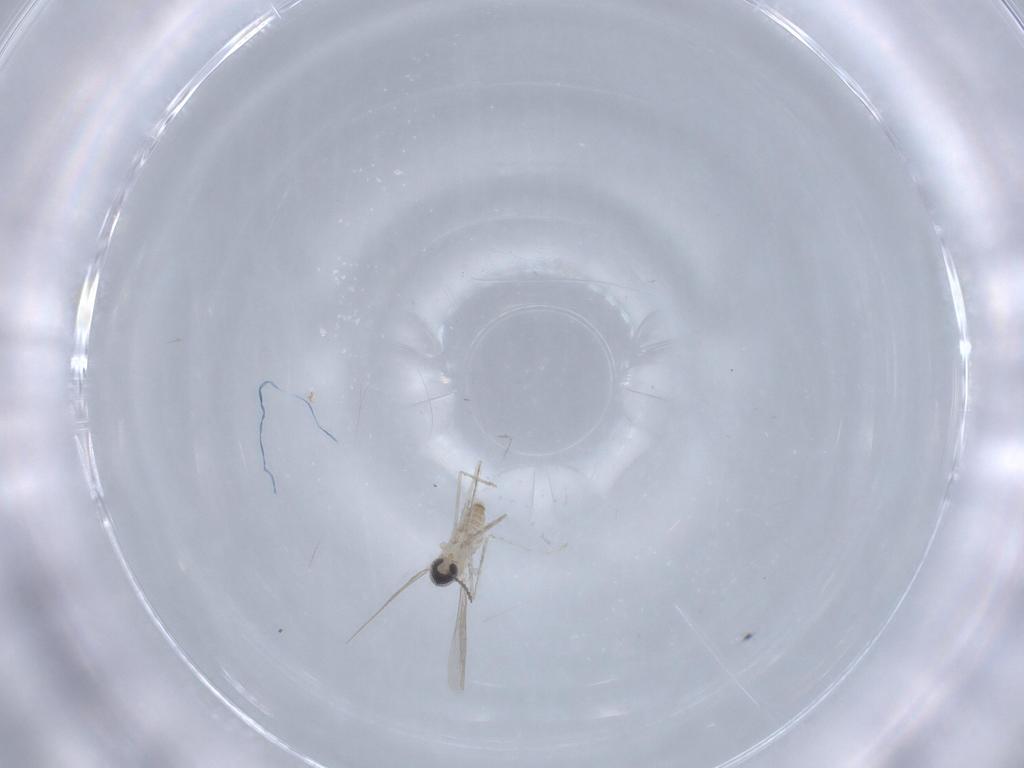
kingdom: Animalia
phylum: Arthropoda
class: Insecta
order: Diptera
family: Cecidomyiidae
